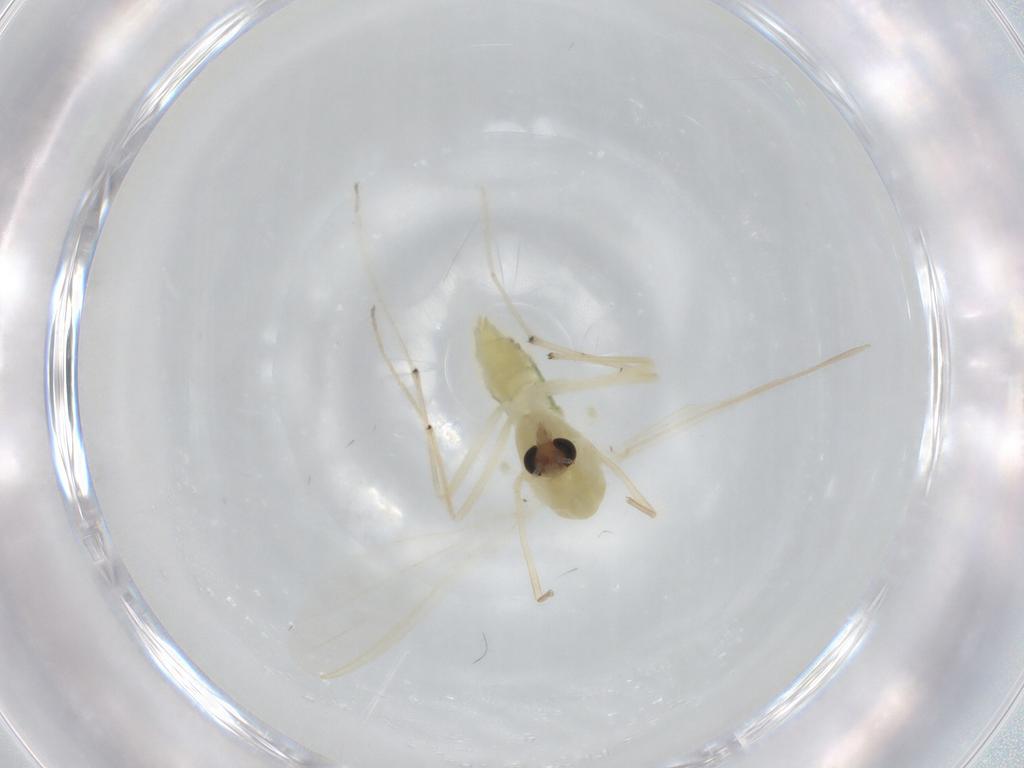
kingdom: Animalia
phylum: Arthropoda
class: Insecta
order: Diptera
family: Chironomidae
